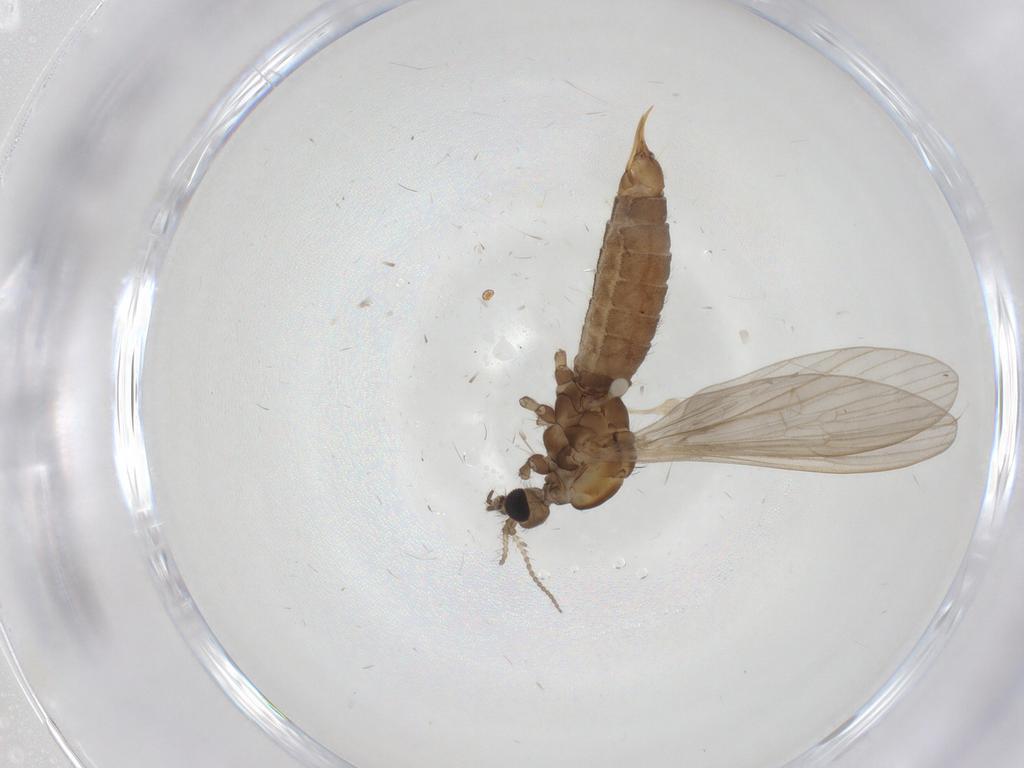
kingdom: Animalia
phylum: Arthropoda
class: Insecta
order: Diptera
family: Limoniidae
